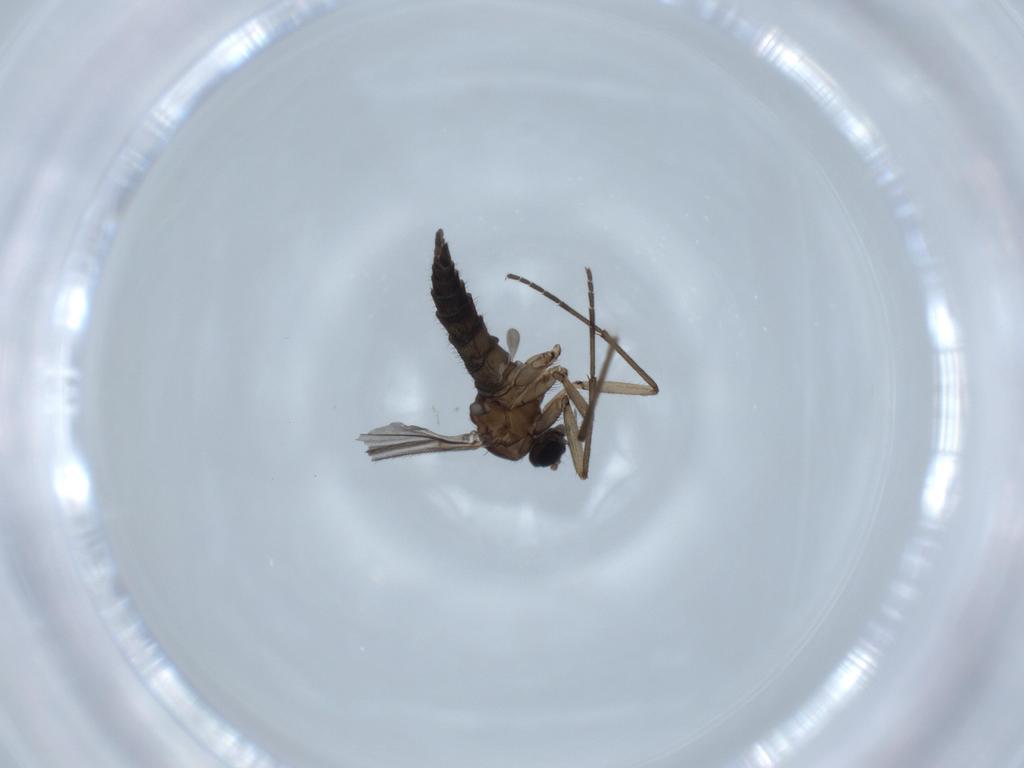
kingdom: Animalia
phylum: Arthropoda
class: Insecta
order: Diptera
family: Sciaridae
